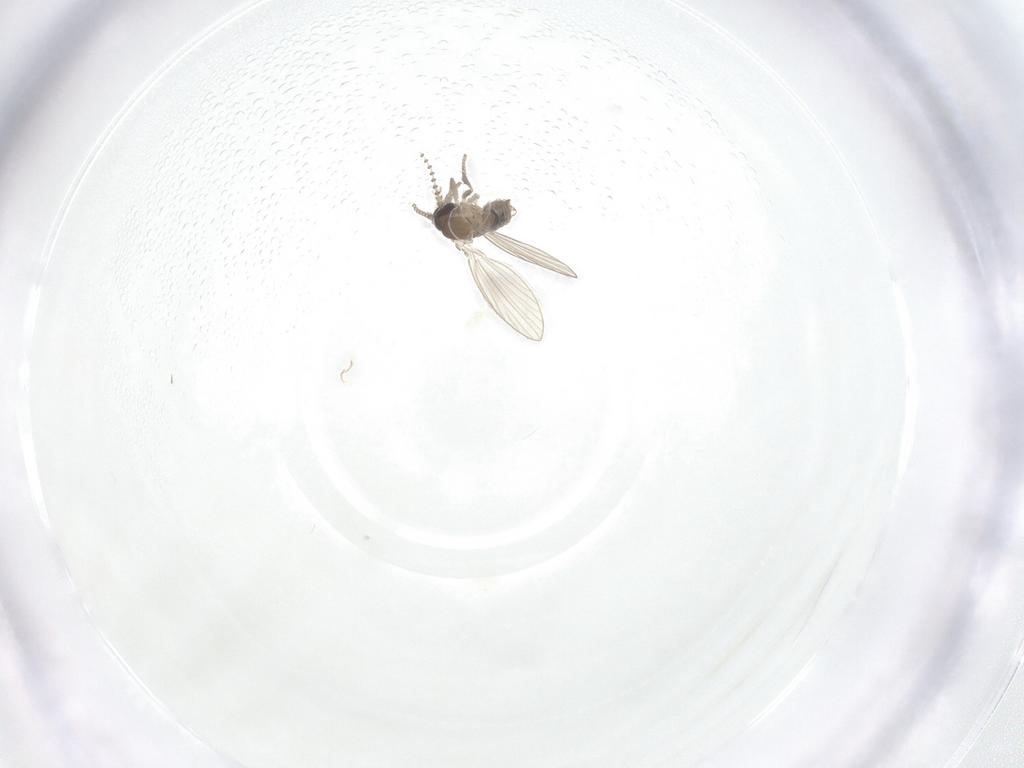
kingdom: Animalia
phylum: Arthropoda
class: Insecta
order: Diptera
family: Psychodidae
